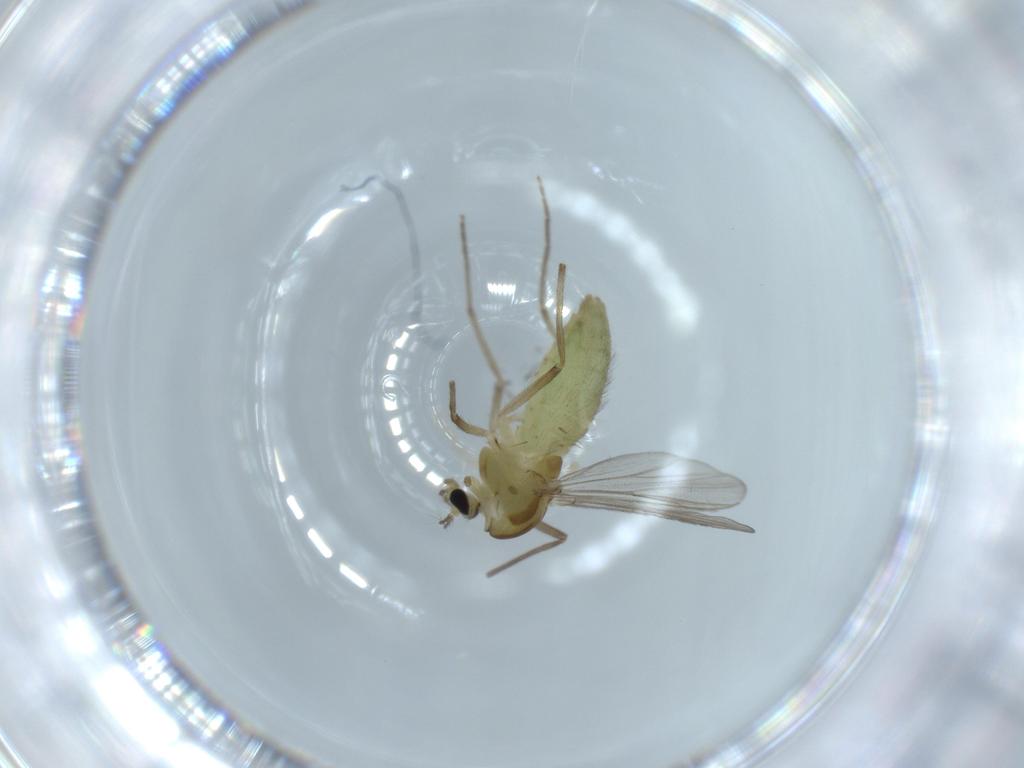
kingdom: Animalia
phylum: Arthropoda
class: Insecta
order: Diptera
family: Chironomidae
